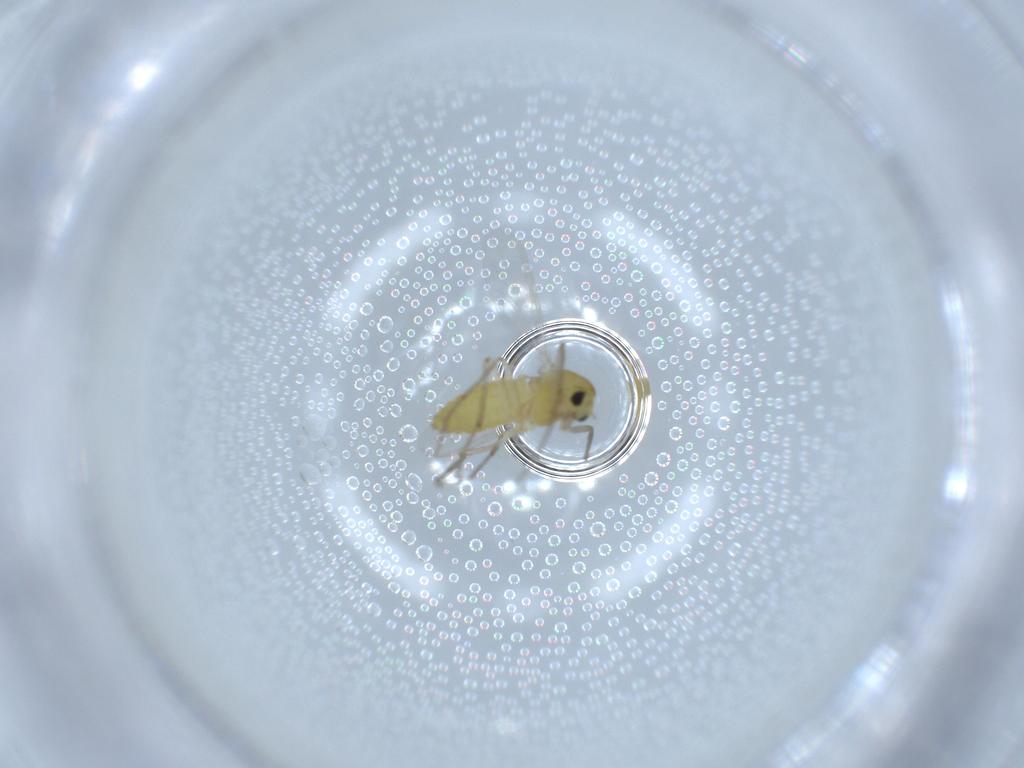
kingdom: Animalia
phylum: Arthropoda
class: Insecta
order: Diptera
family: Chironomidae
